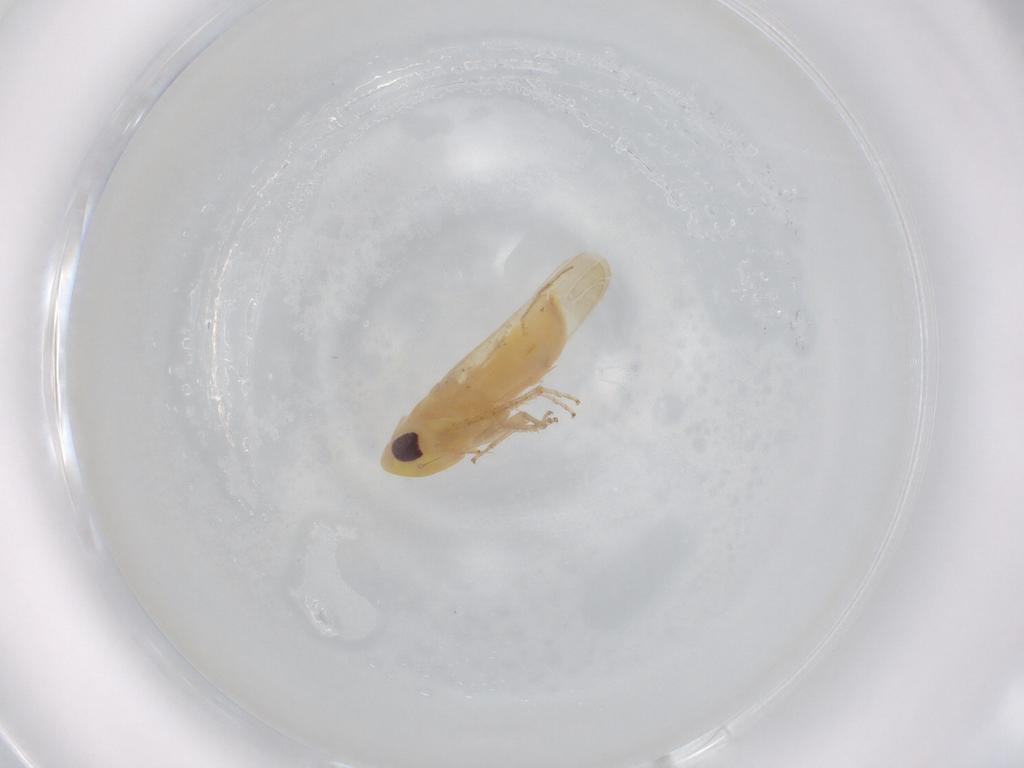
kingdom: Animalia
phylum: Arthropoda
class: Insecta
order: Hemiptera
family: Cicadellidae
